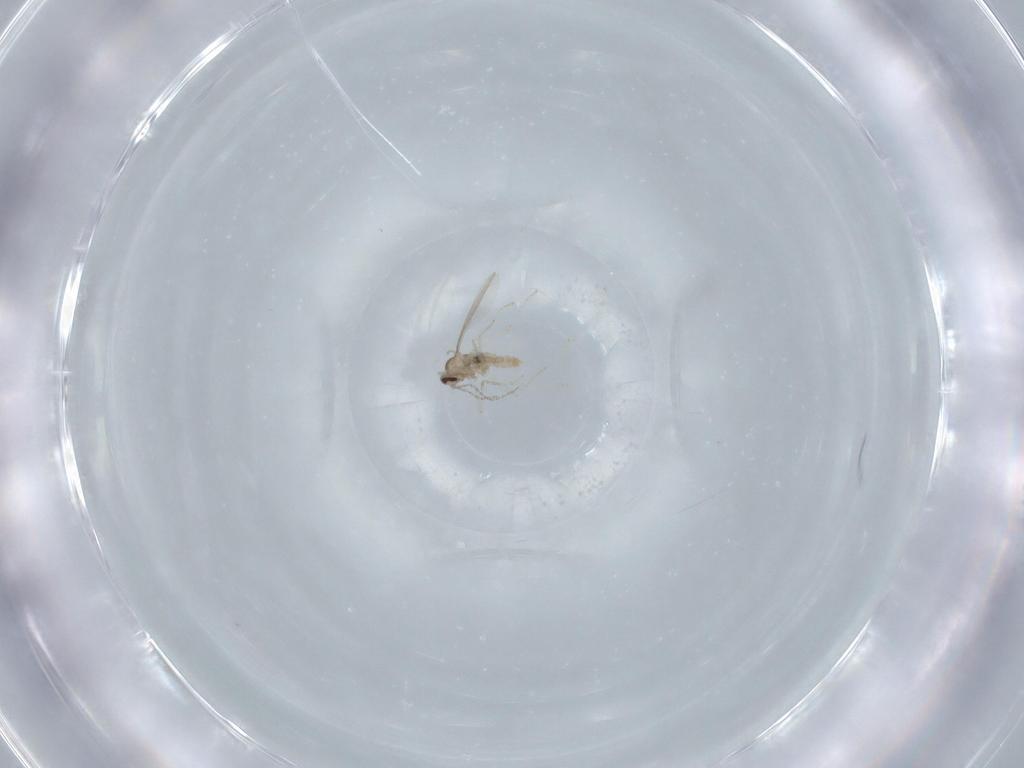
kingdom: Animalia
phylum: Arthropoda
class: Insecta
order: Diptera
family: Cecidomyiidae
